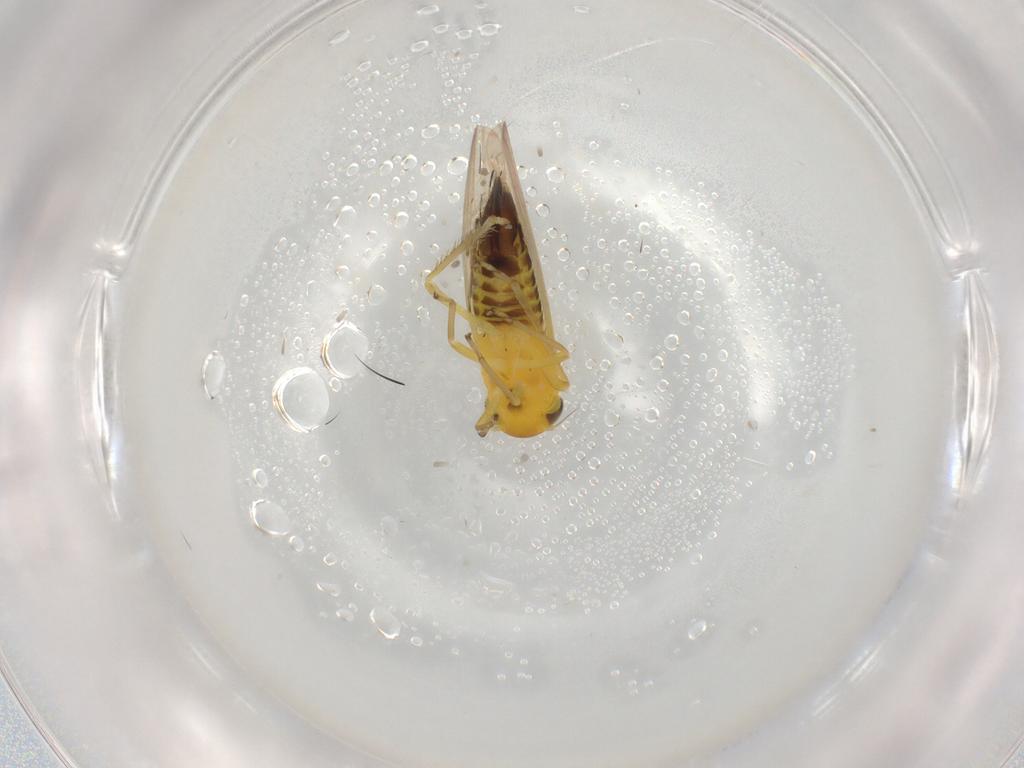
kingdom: Animalia
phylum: Arthropoda
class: Insecta
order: Hemiptera
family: Cicadellidae
